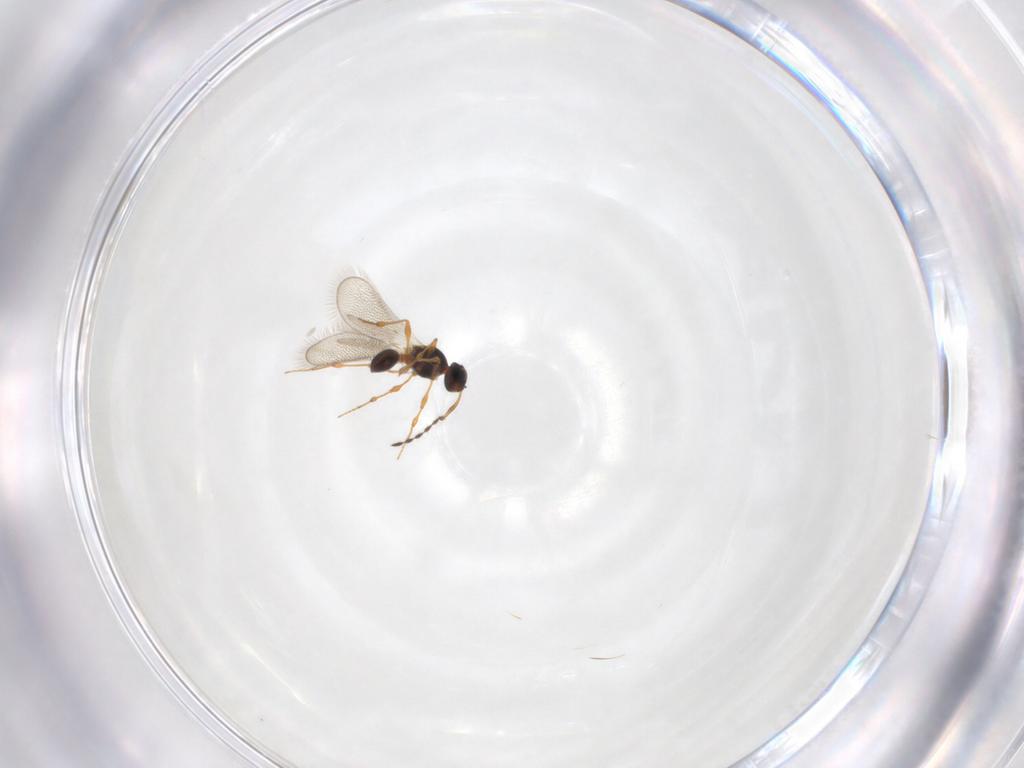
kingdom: Animalia
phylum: Arthropoda
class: Insecta
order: Hymenoptera
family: Platygastridae
